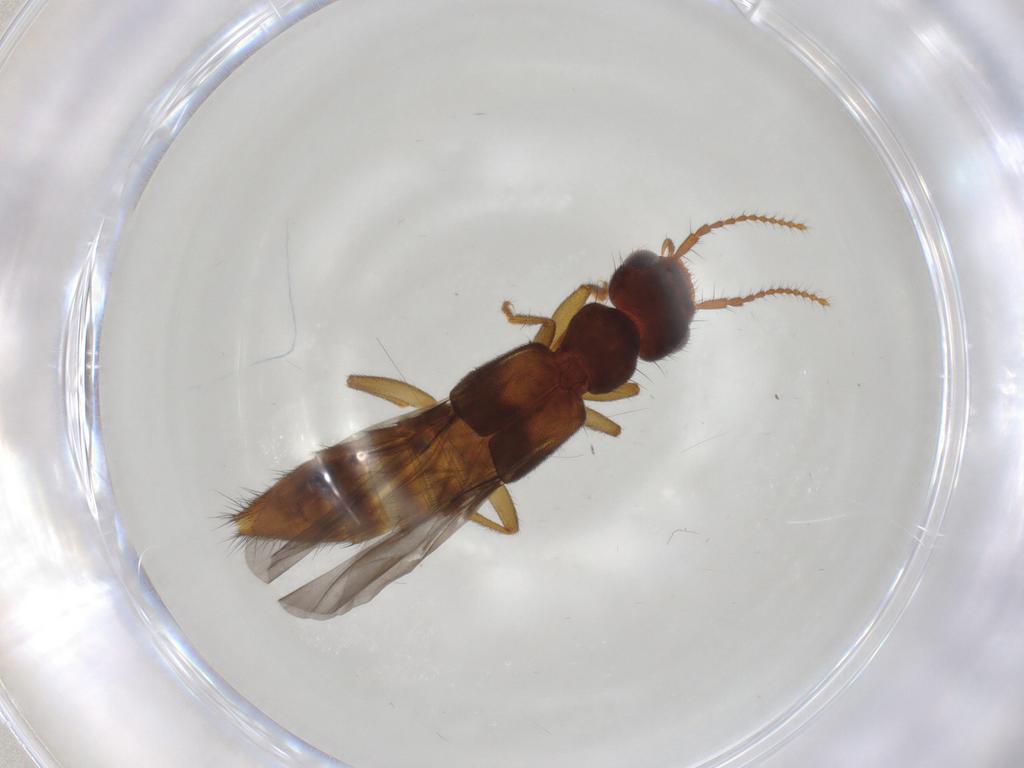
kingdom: Animalia
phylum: Arthropoda
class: Insecta
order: Coleoptera
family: Staphylinidae
